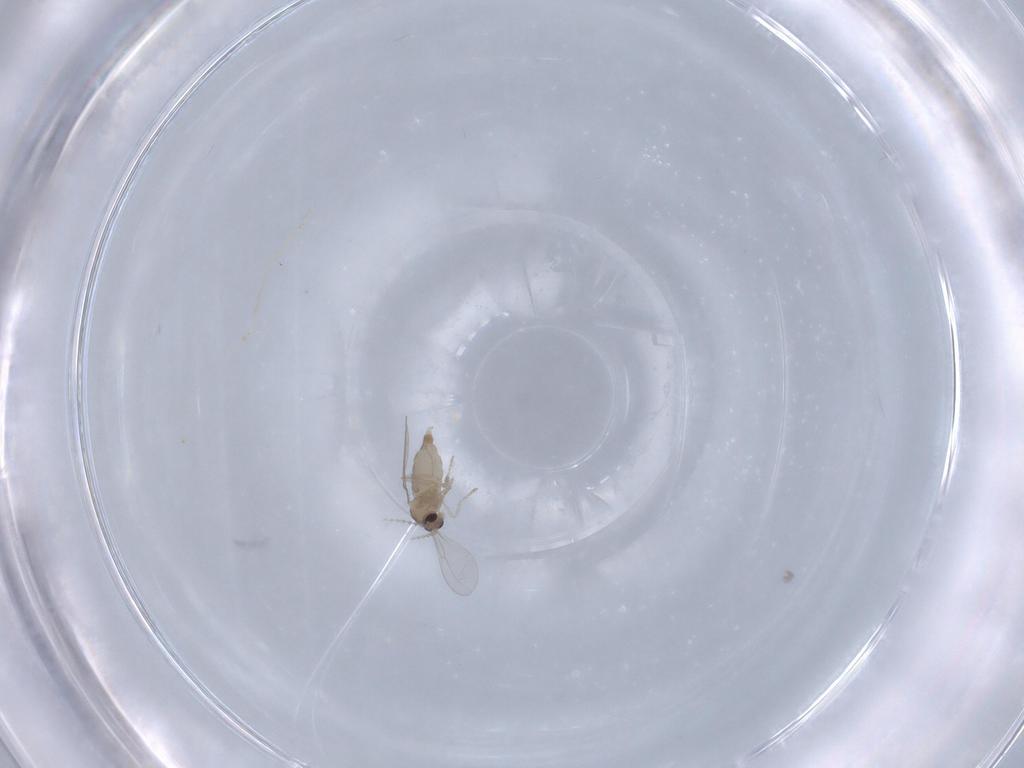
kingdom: Animalia
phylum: Arthropoda
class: Insecta
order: Diptera
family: Cecidomyiidae
